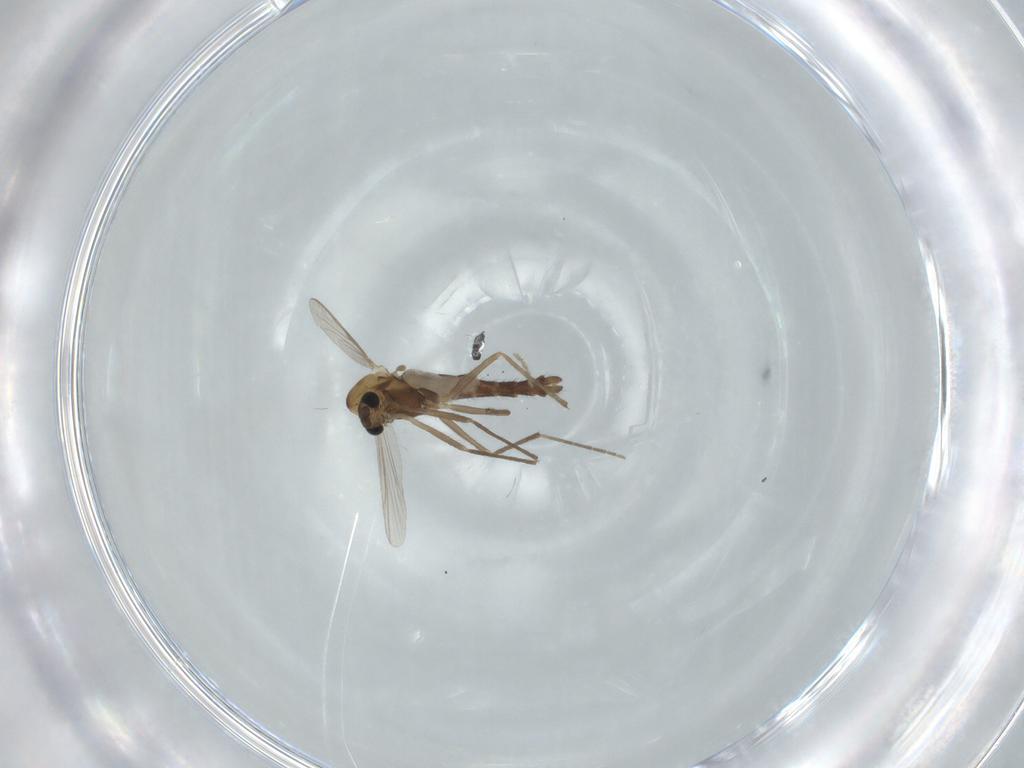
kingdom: Animalia
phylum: Arthropoda
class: Insecta
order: Diptera
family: Chironomidae
